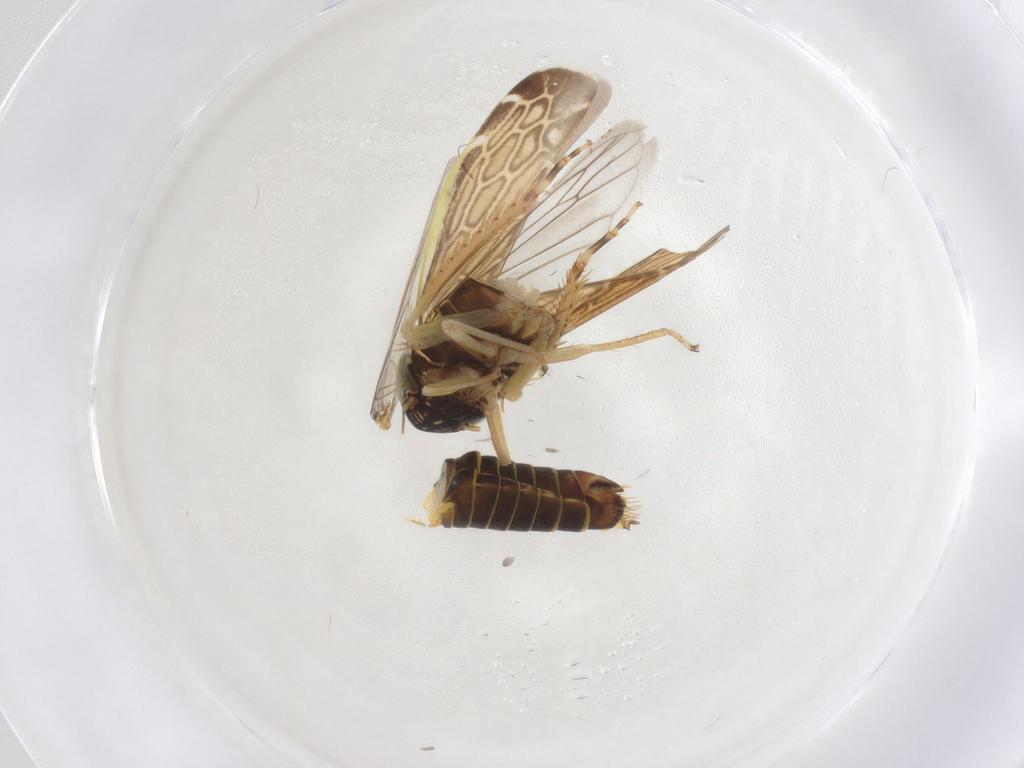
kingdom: Animalia
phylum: Arthropoda
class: Insecta
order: Hemiptera
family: Cicadellidae
